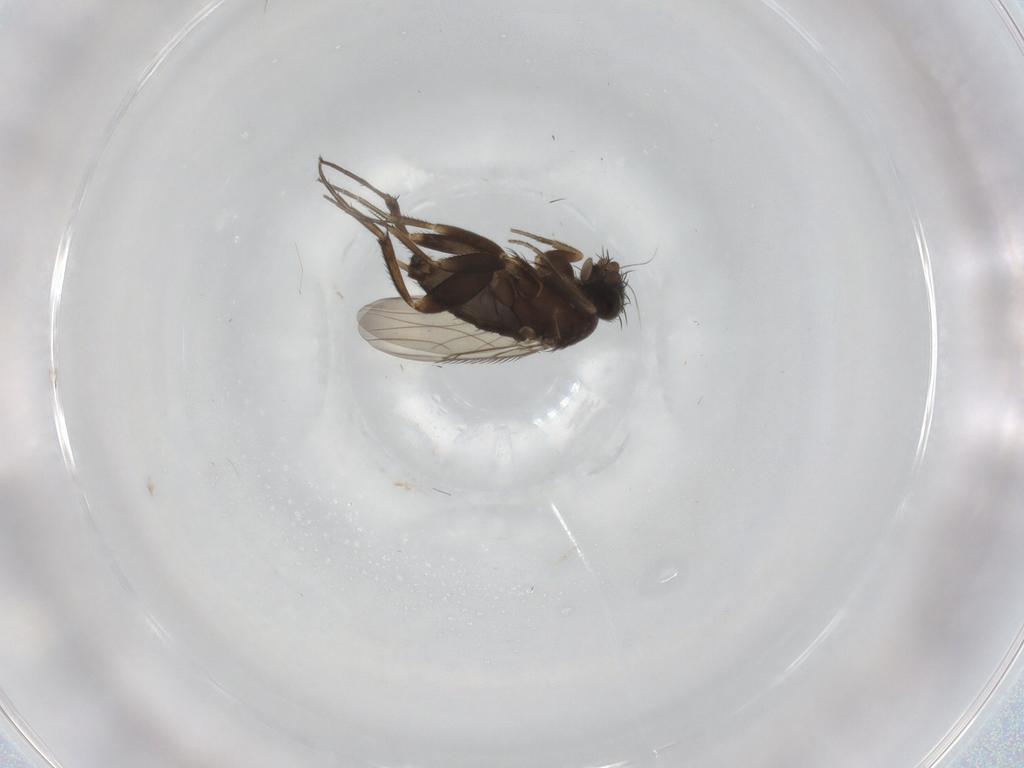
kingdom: Animalia
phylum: Arthropoda
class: Insecta
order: Diptera
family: Phoridae
